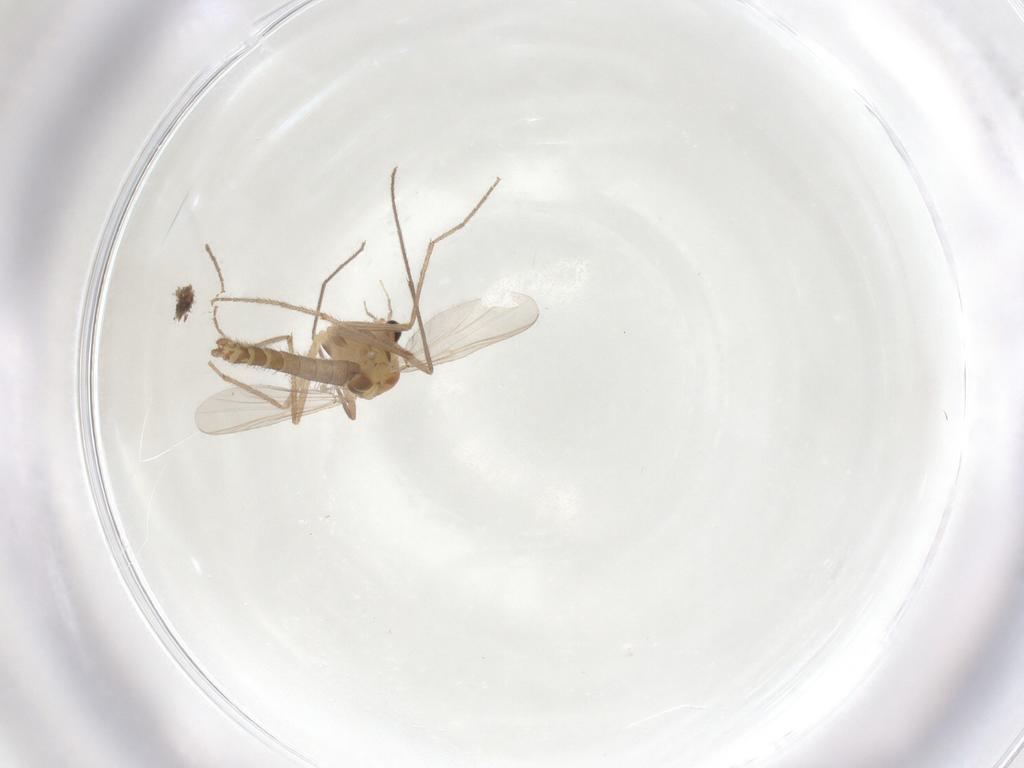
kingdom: Animalia
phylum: Arthropoda
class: Insecta
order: Diptera
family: Chironomidae
